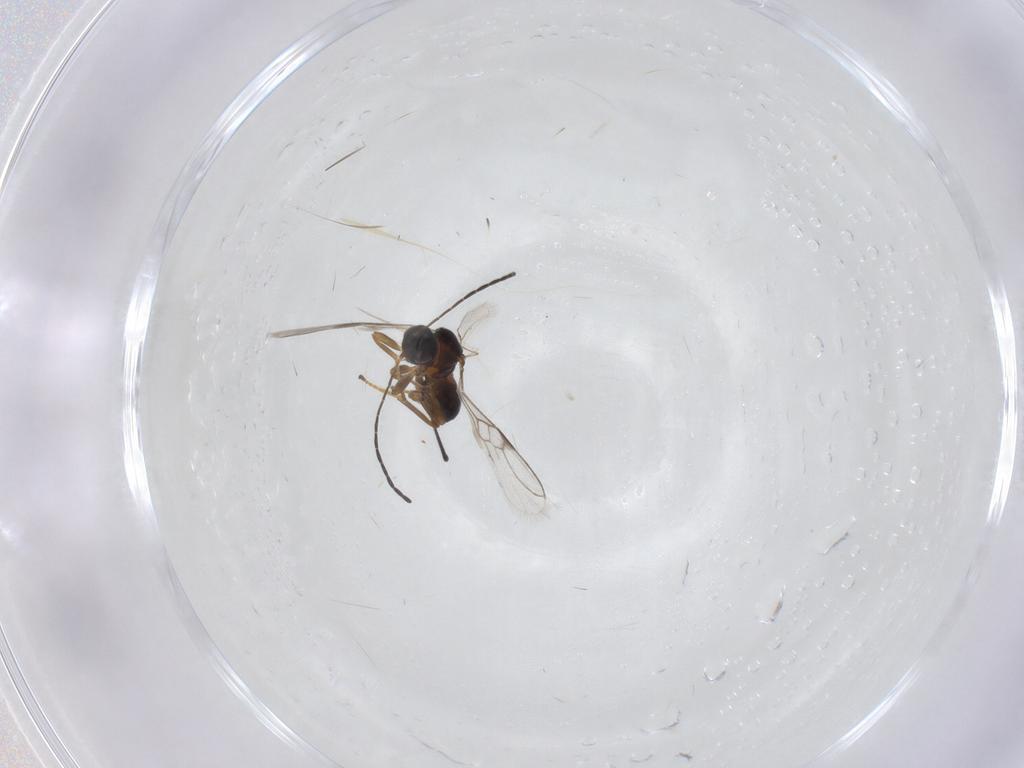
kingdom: Animalia
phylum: Arthropoda
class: Insecta
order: Hymenoptera
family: Braconidae
